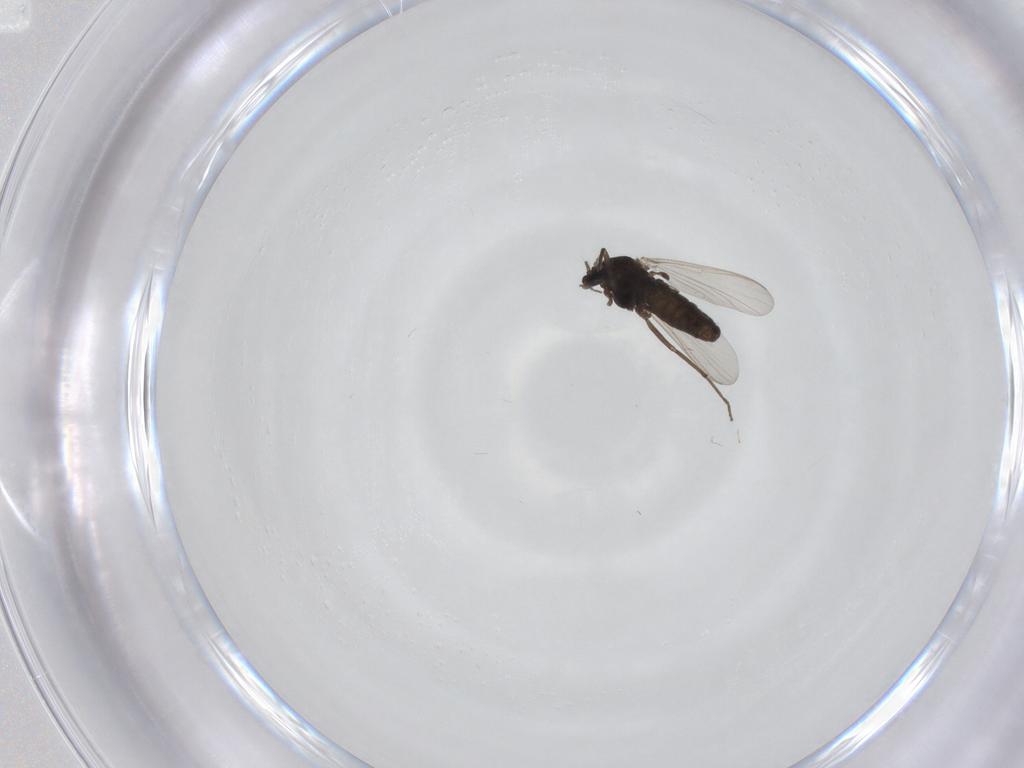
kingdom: Animalia
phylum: Arthropoda
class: Insecta
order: Diptera
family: Chironomidae
